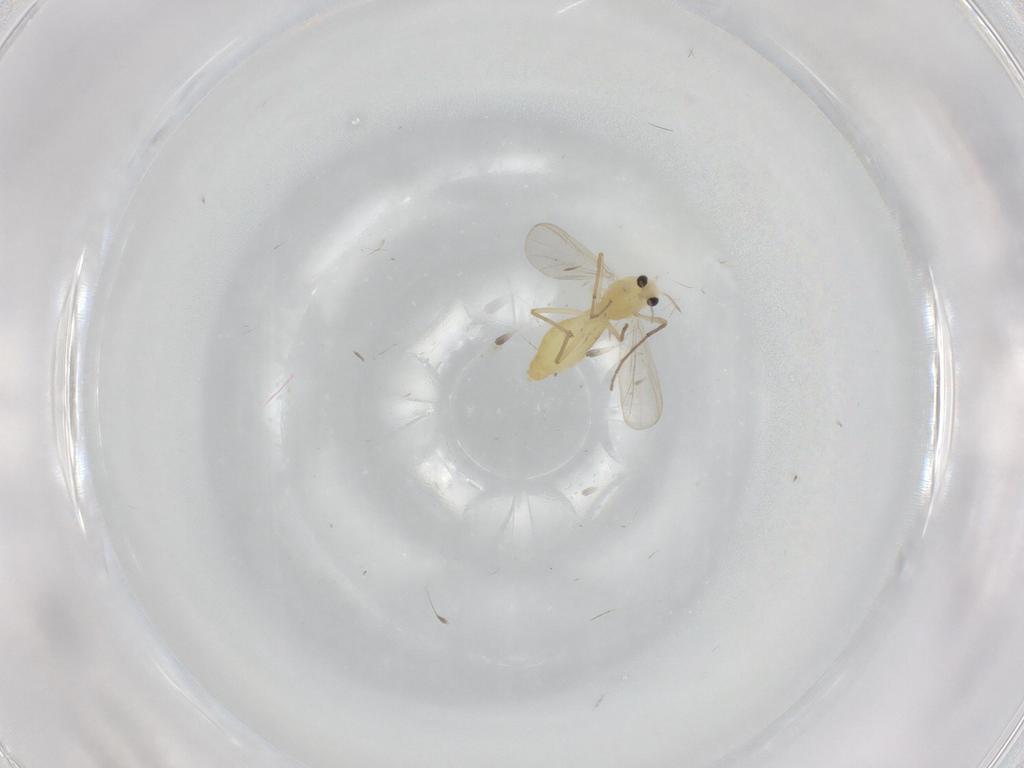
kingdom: Animalia
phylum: Arthropoda
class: Insecta
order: Diptera
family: Chironomidae
